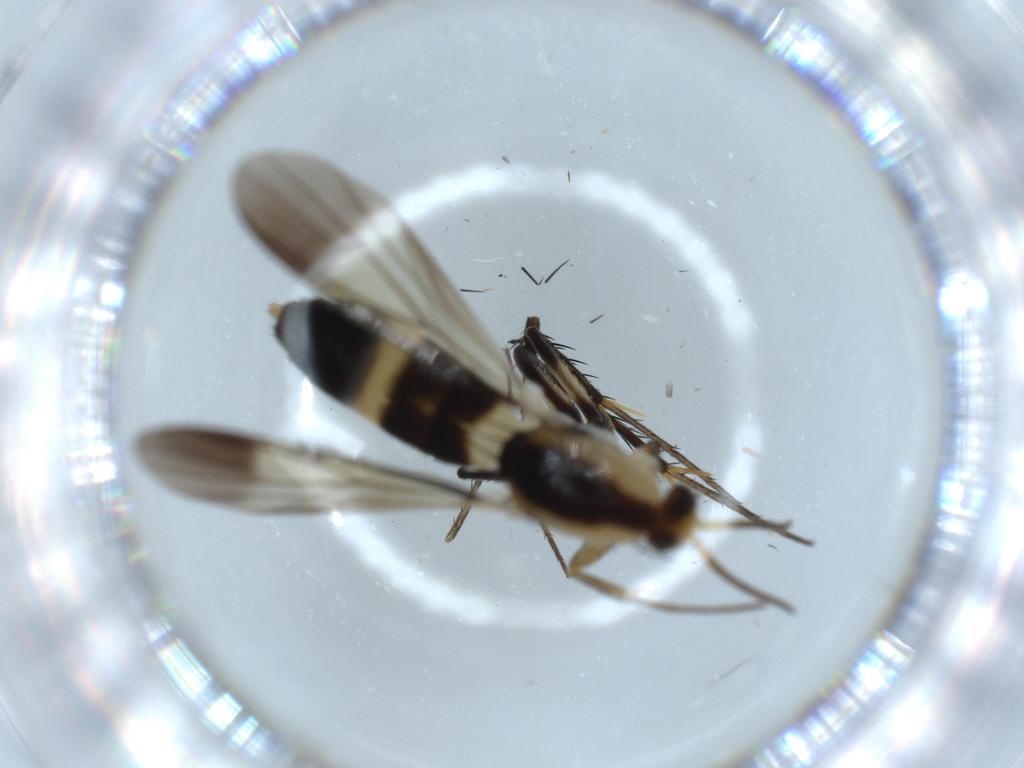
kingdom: Animalia
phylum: Arthropoda
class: Insecta
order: Diptera
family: Mycetophilidae
